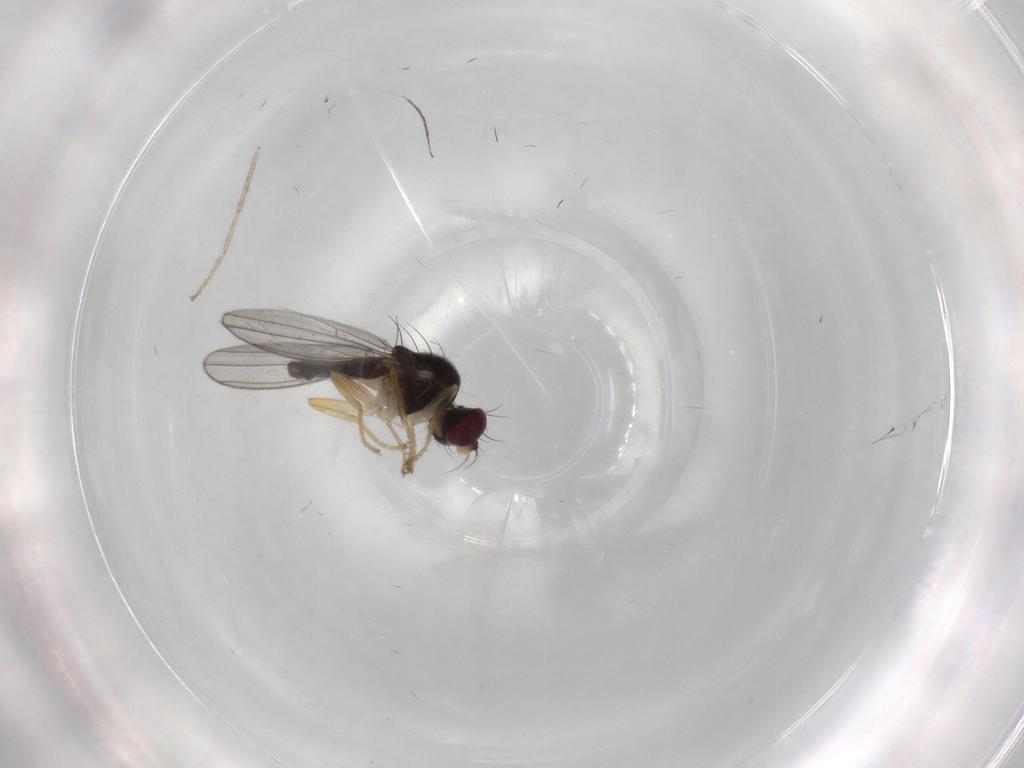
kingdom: Animalia
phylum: Arthropoda
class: Insecta
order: Diptera
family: Anthomyzidae
